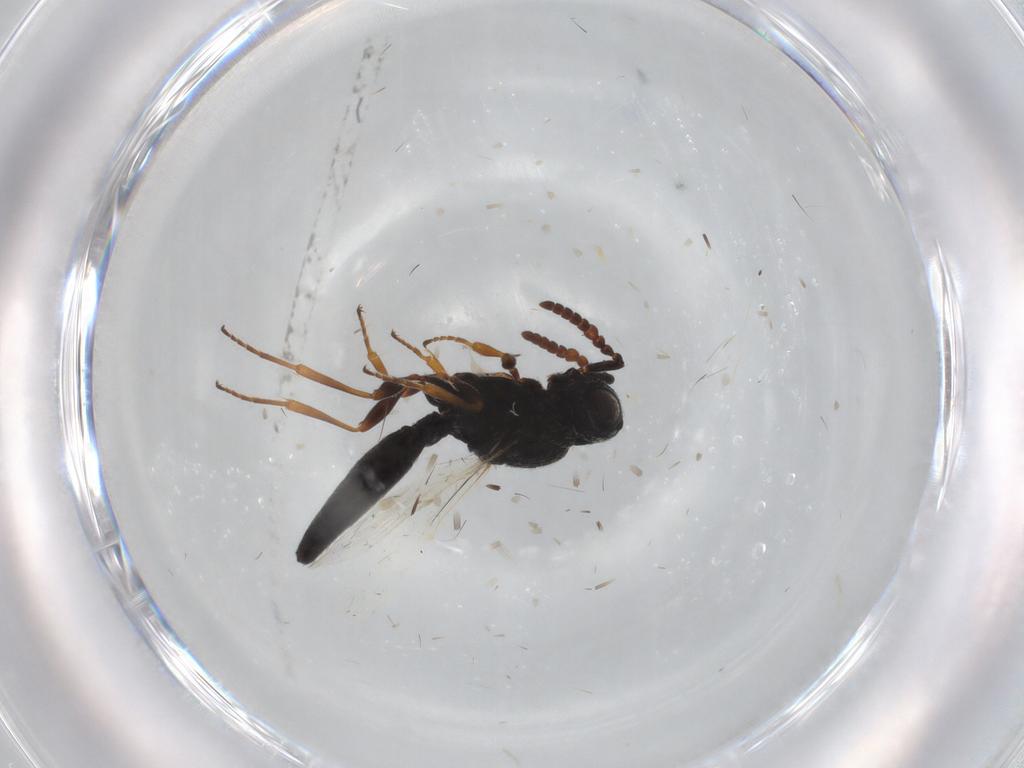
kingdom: Animalia
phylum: Arthropoda
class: Insecta
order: Hymenoptera
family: Scelionidae
